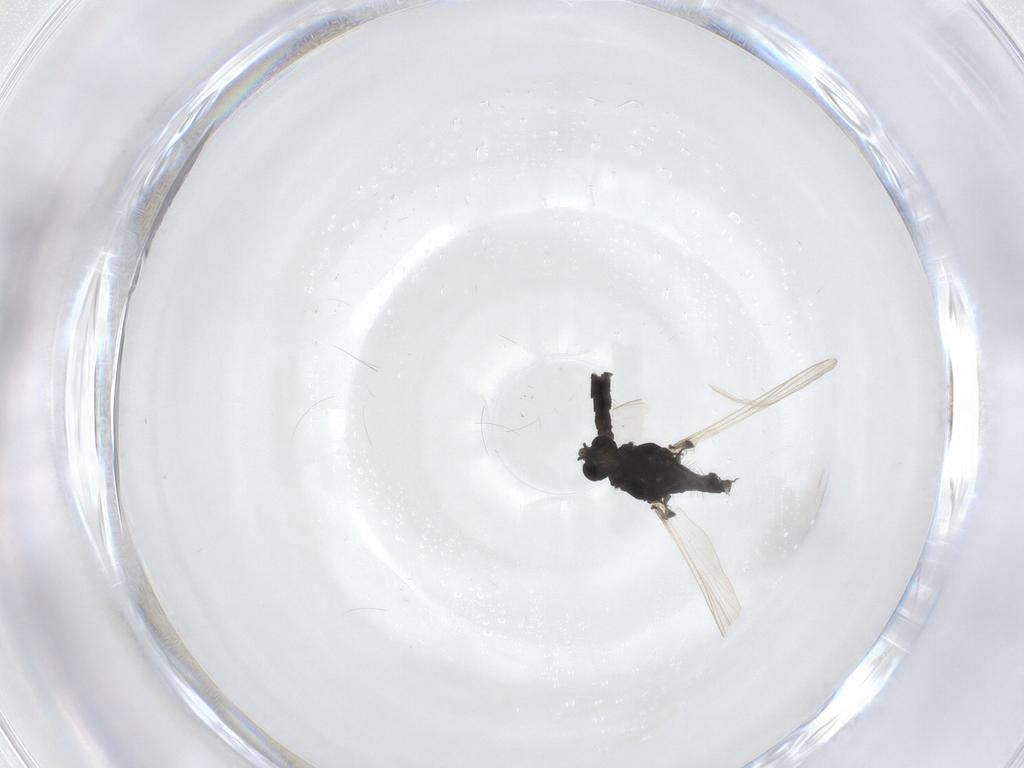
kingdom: Animalia
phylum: Arthropoda
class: Insecta
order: Diptera
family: Chironomidae
